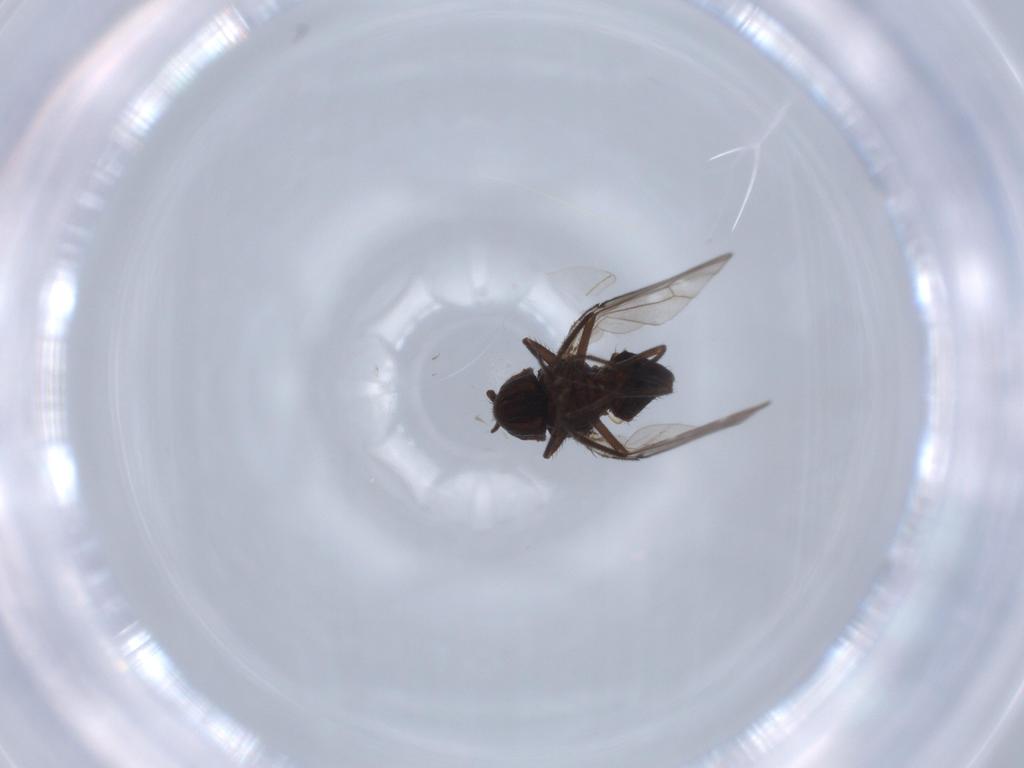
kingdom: Animalia
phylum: Arthropoda
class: Insecta
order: Diptera
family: Ephydridae
